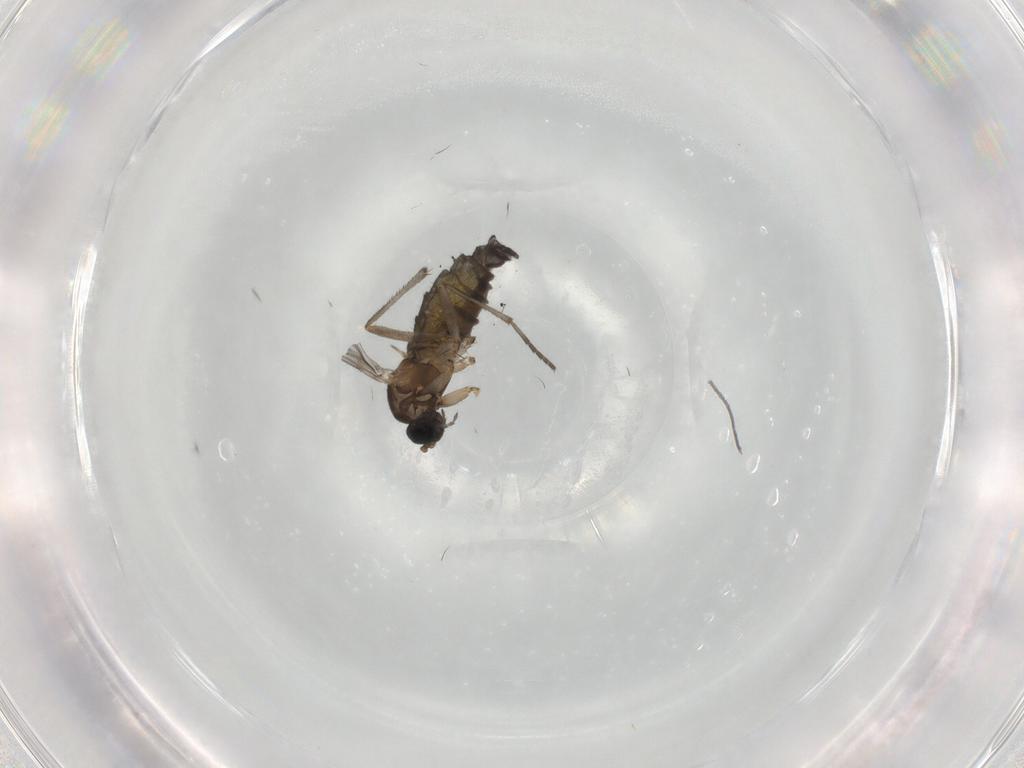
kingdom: Animalia
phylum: Arthropoda
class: Insecta
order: Diptera
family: Sciaridae
